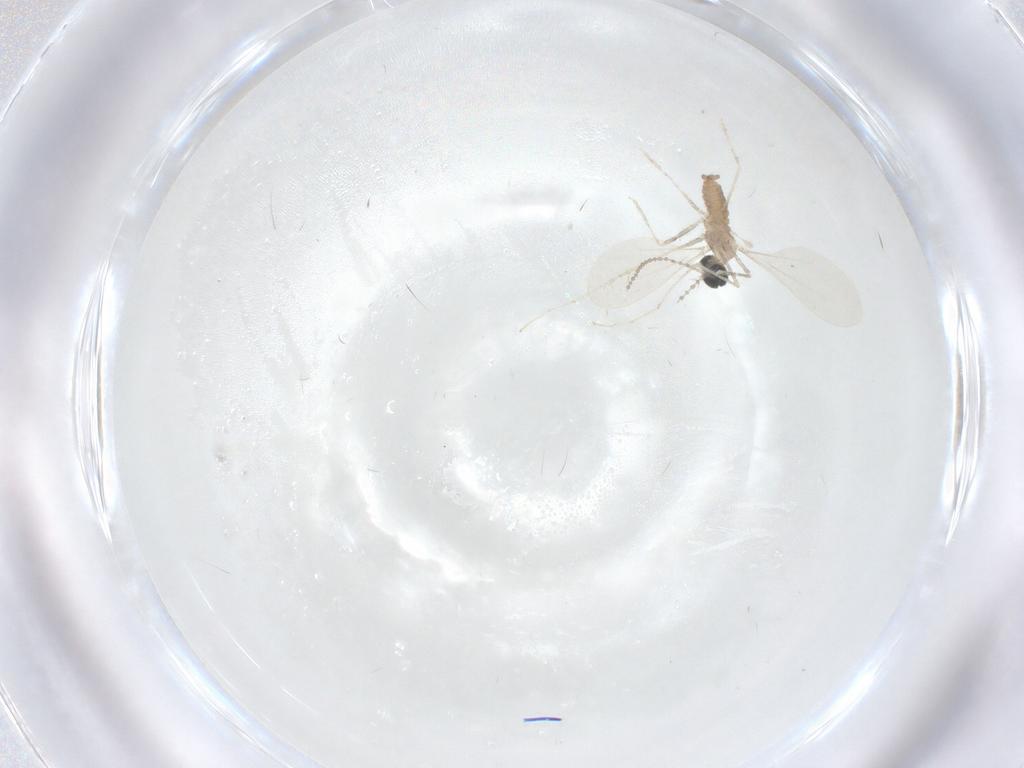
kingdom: Animalia
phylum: Arthropoda
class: Insecta
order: Diptera
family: Cecidomyiidae
